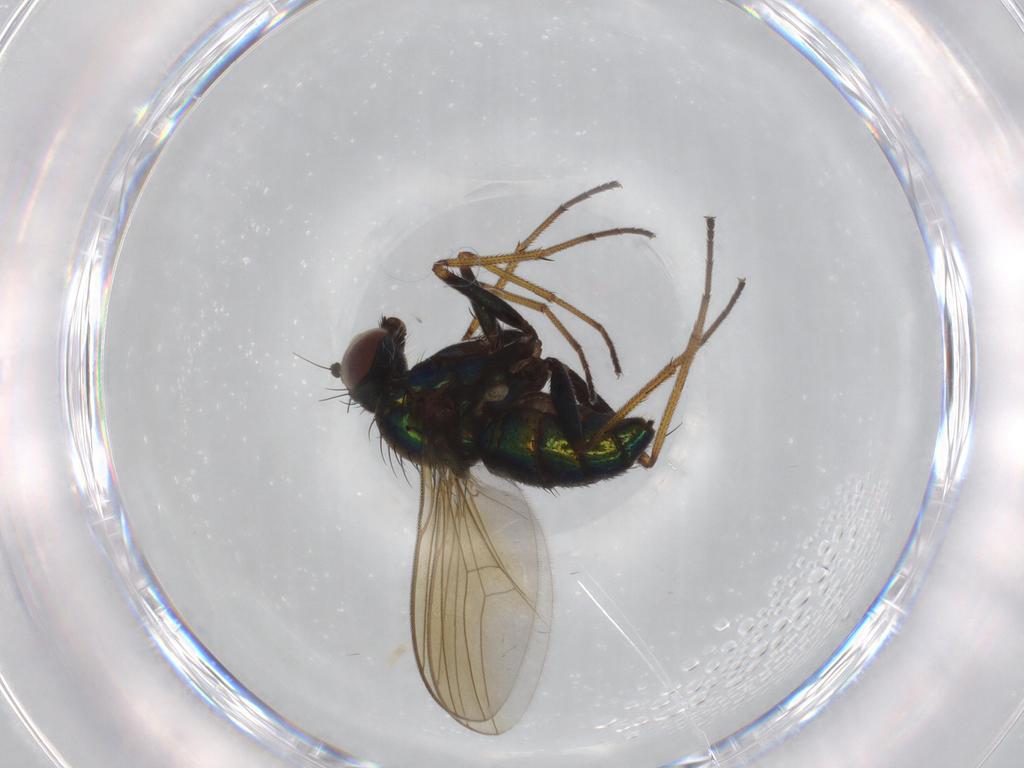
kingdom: Animalia
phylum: Arthropoda
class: Insecta
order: Diptera
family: Dolichopodidae
